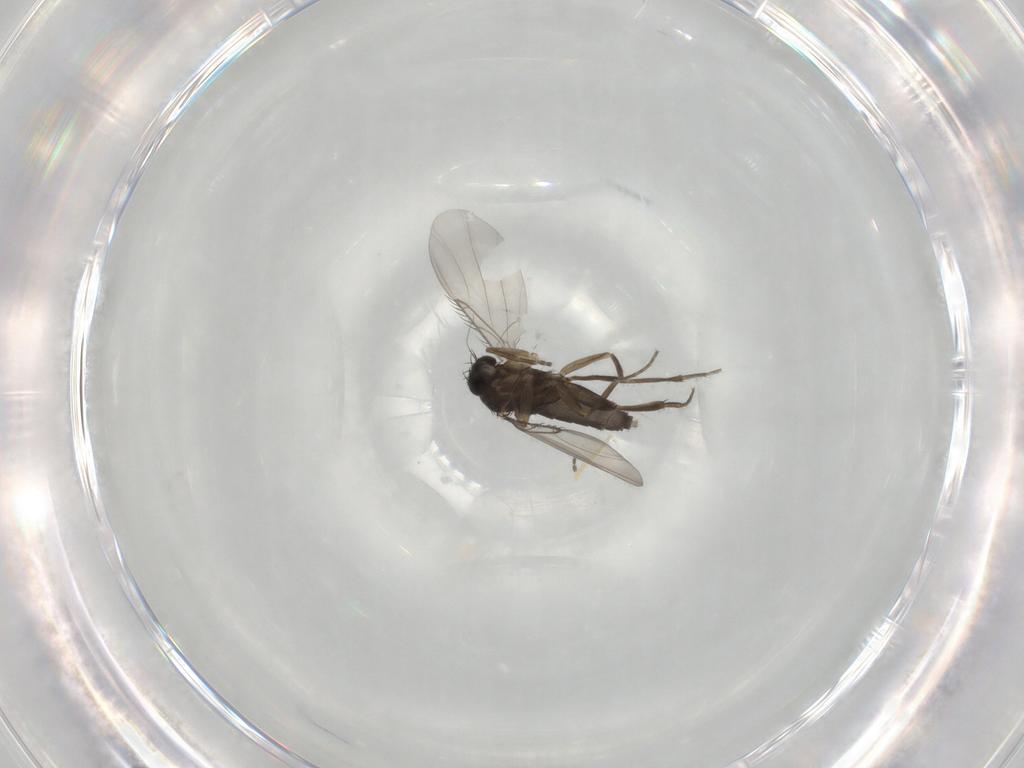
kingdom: Animalia
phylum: Arthropoda
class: Insecta
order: Diptera
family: Phoridae
